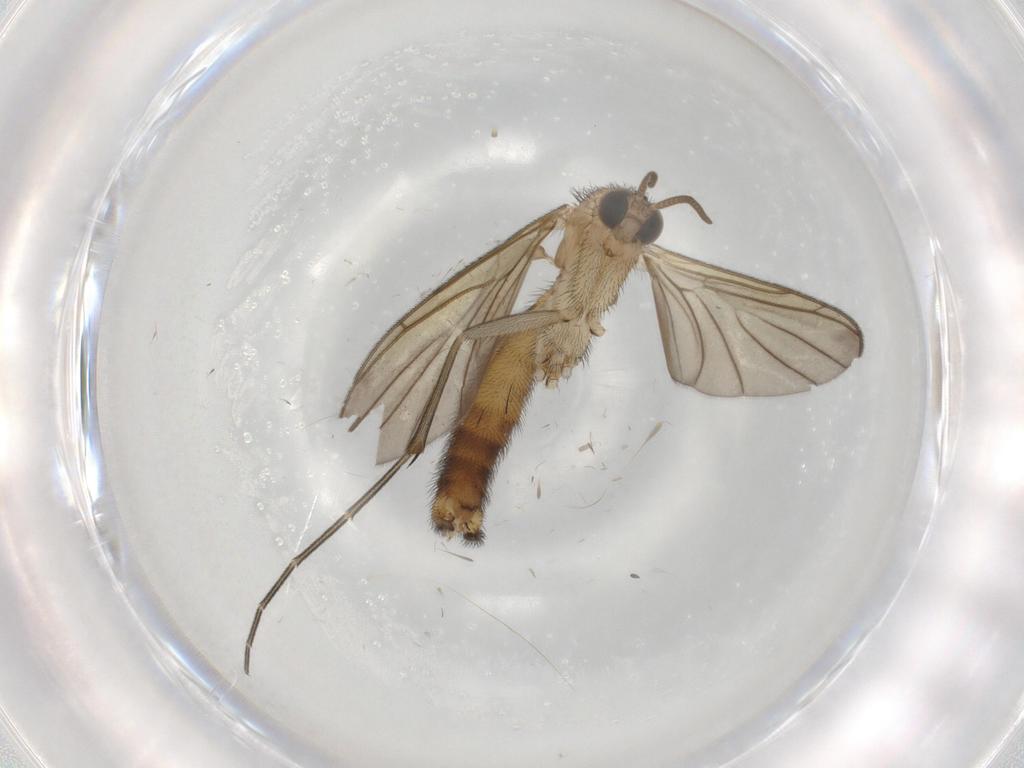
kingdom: Animalia
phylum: Arthropoda
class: Insecta
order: Diptera
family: Keroplatidae
